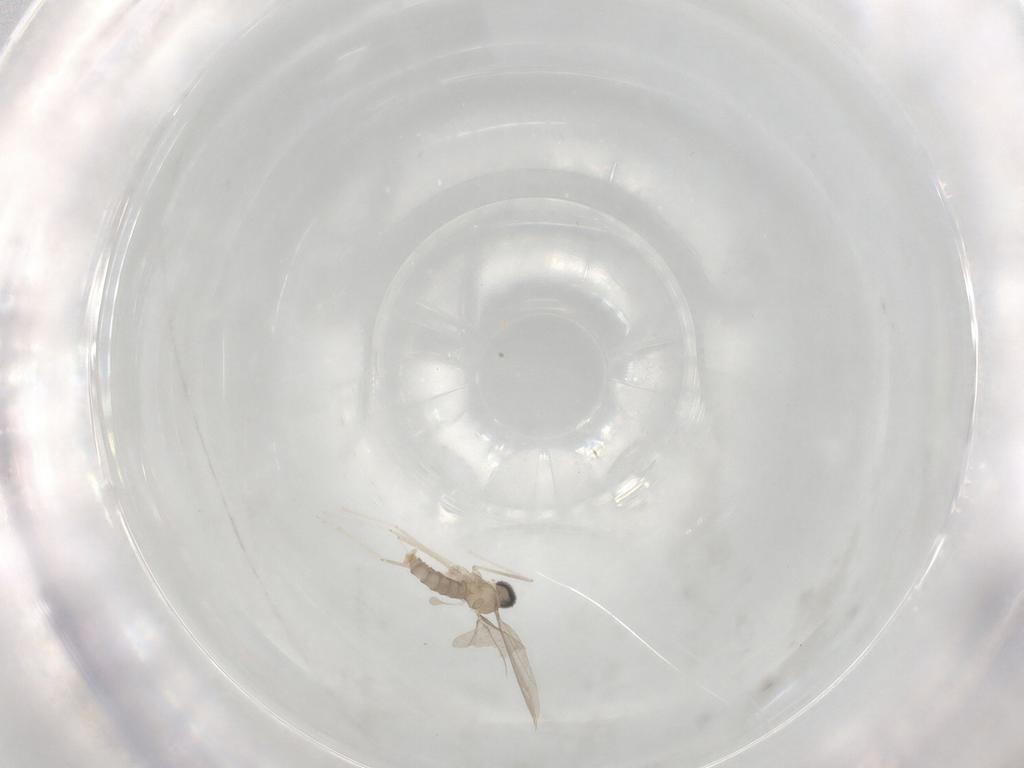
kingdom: Animalia
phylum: Arthropoda
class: Insecta
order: Diptera
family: Cecidomyiidae
